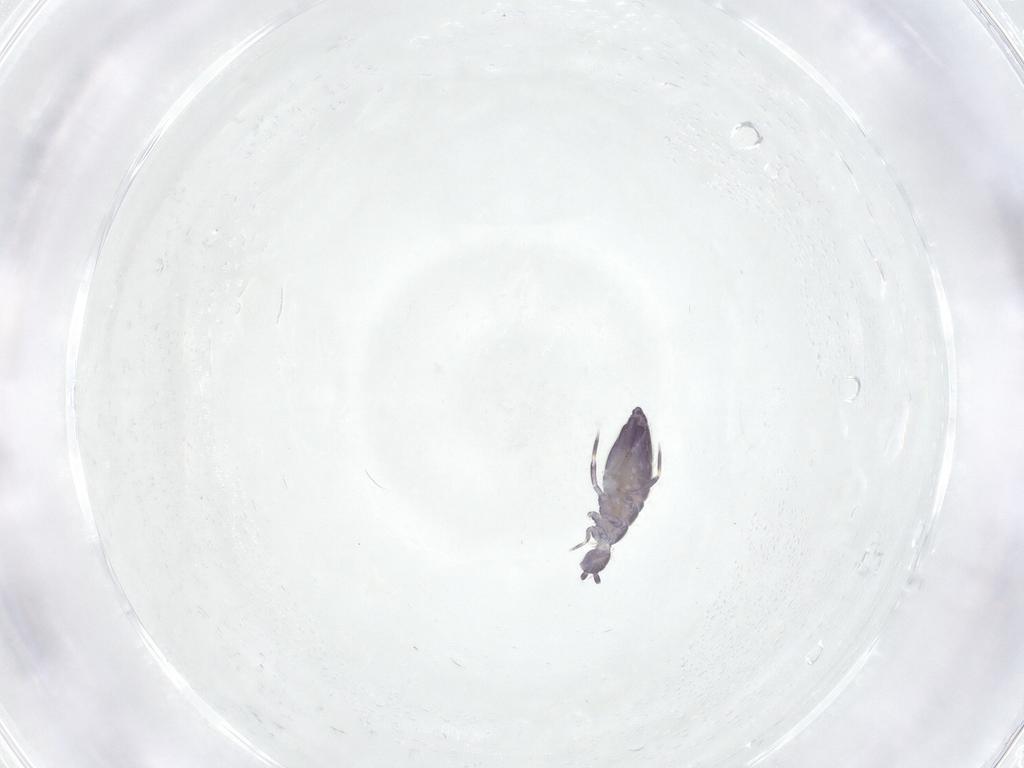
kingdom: Animalia
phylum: Arthropoda
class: Collembola
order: Entomobryomorpha
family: Entomobryidae
